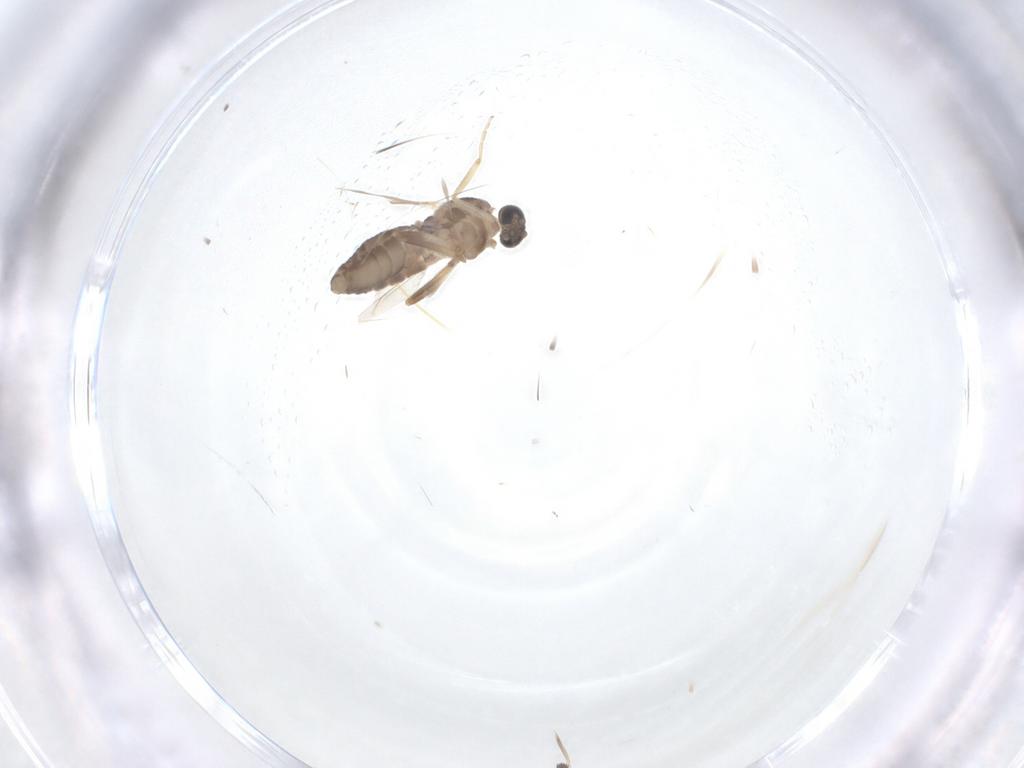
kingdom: Animalia
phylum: Arthropoda
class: Insecta
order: Diptera
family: Ceratopogonidae
